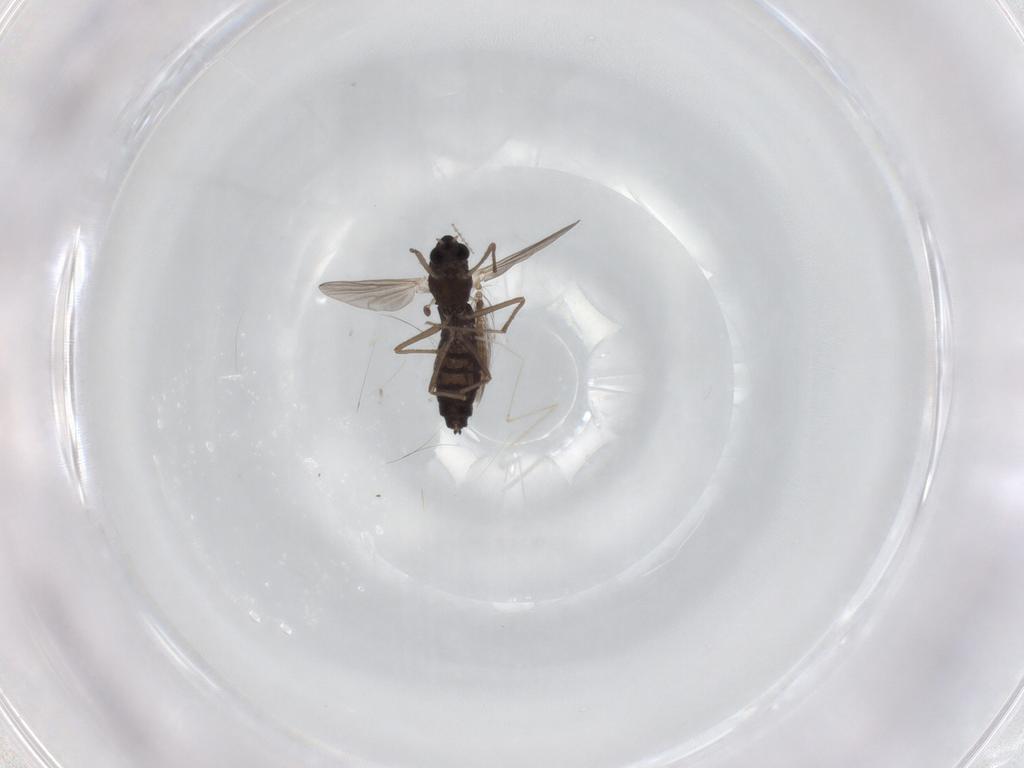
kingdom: Animalia
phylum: Arthropoda
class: Insecta
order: Diptera
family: Chironomidae
